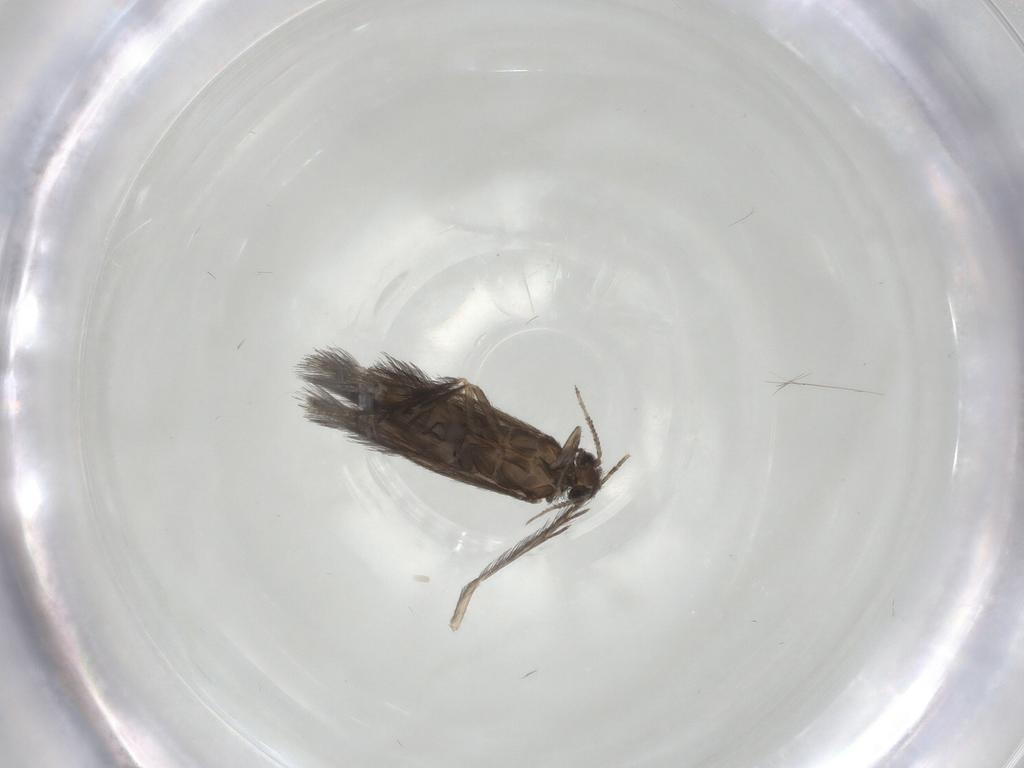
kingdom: Animalia
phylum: Arthropoda
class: Insecta
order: Trichoptera
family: Hydroptilidae
